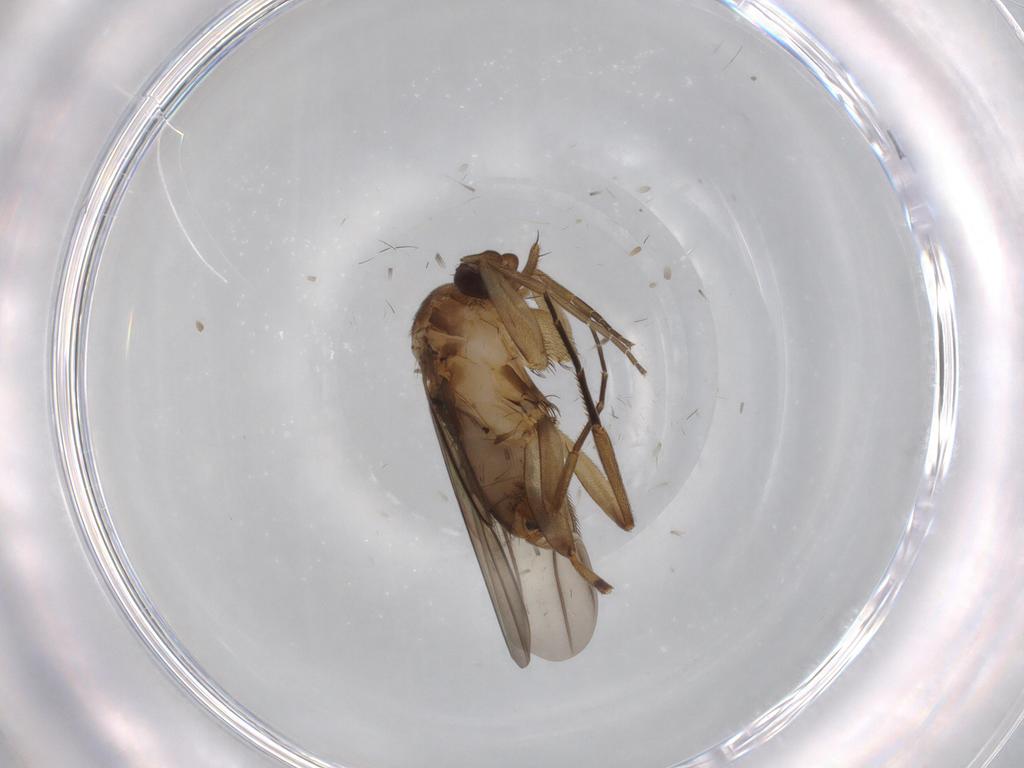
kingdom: Animalia
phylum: Arthropoda
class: Insecta
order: Diptera
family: Phoridae
